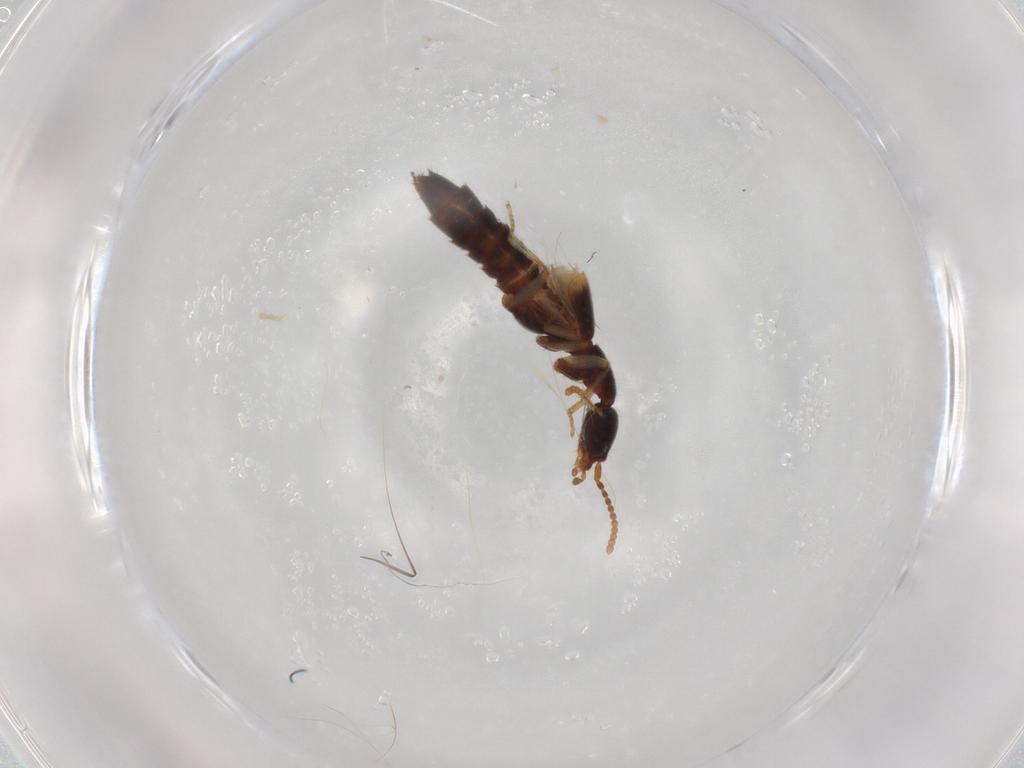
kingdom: Animalia
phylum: Arthropoda
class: Insecta
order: Coleoptera
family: Staphylinidae
